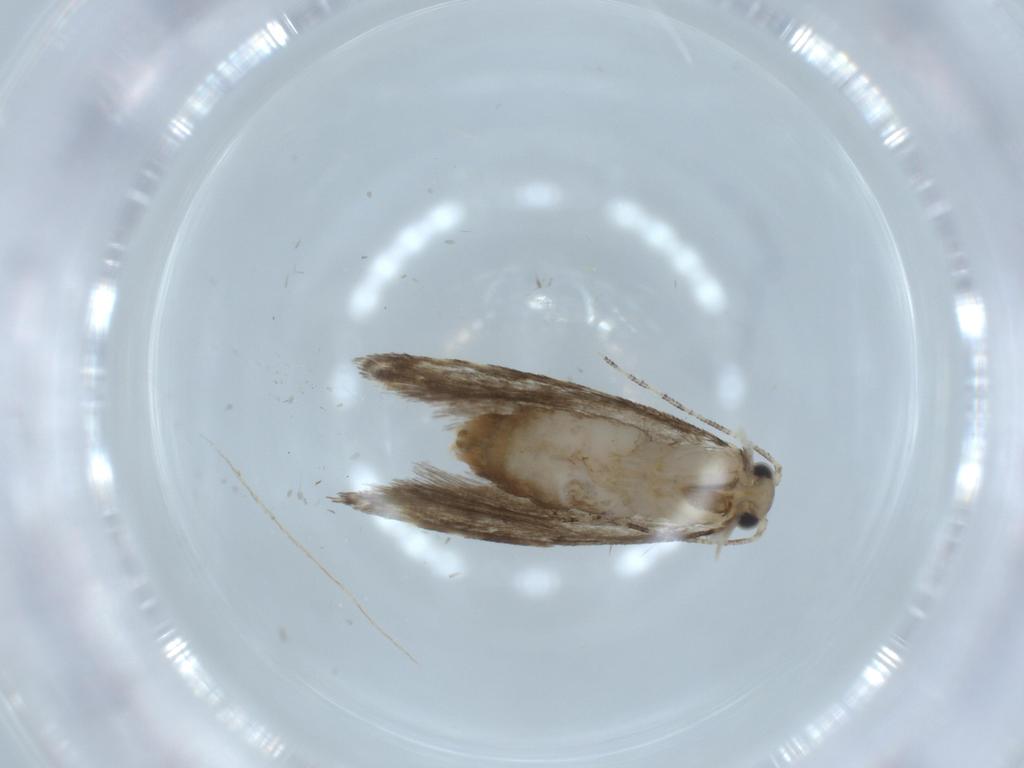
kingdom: Animalia
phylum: Arthropoda
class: Insecta
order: Lepidoptera
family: Tineidae
